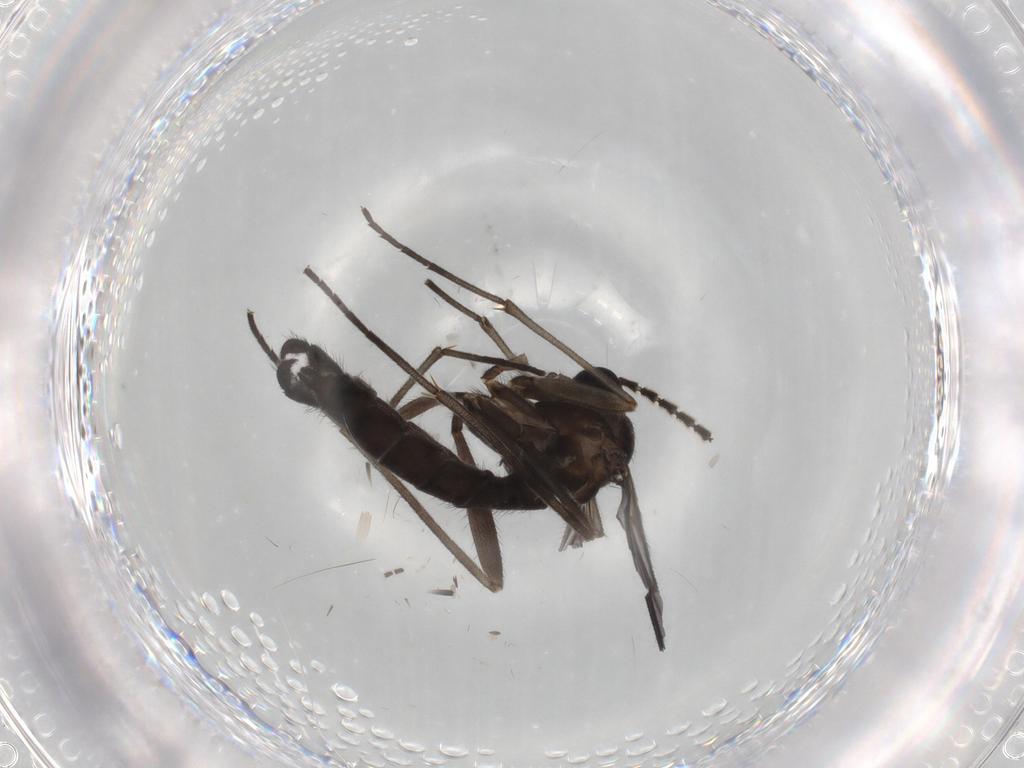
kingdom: Animalia
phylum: Arthropoda
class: Insecta
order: Diptera
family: Sciaridae
